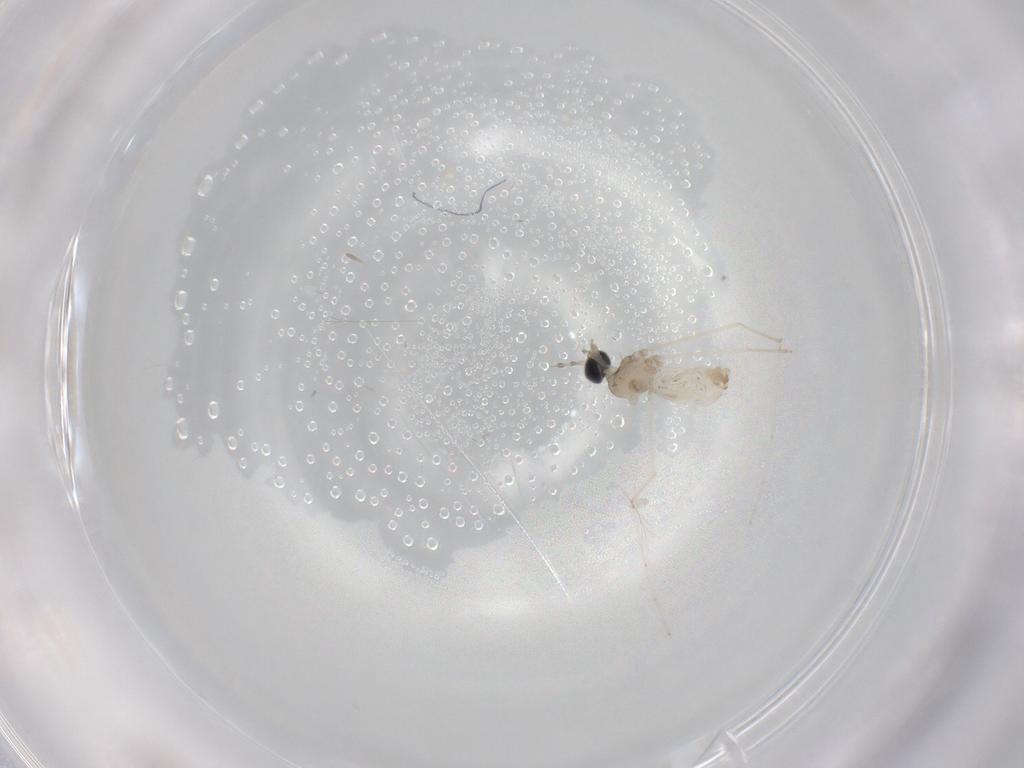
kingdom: Animalia
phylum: Arthropoda
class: Insecta
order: Diptera
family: Cecidomyiidae
